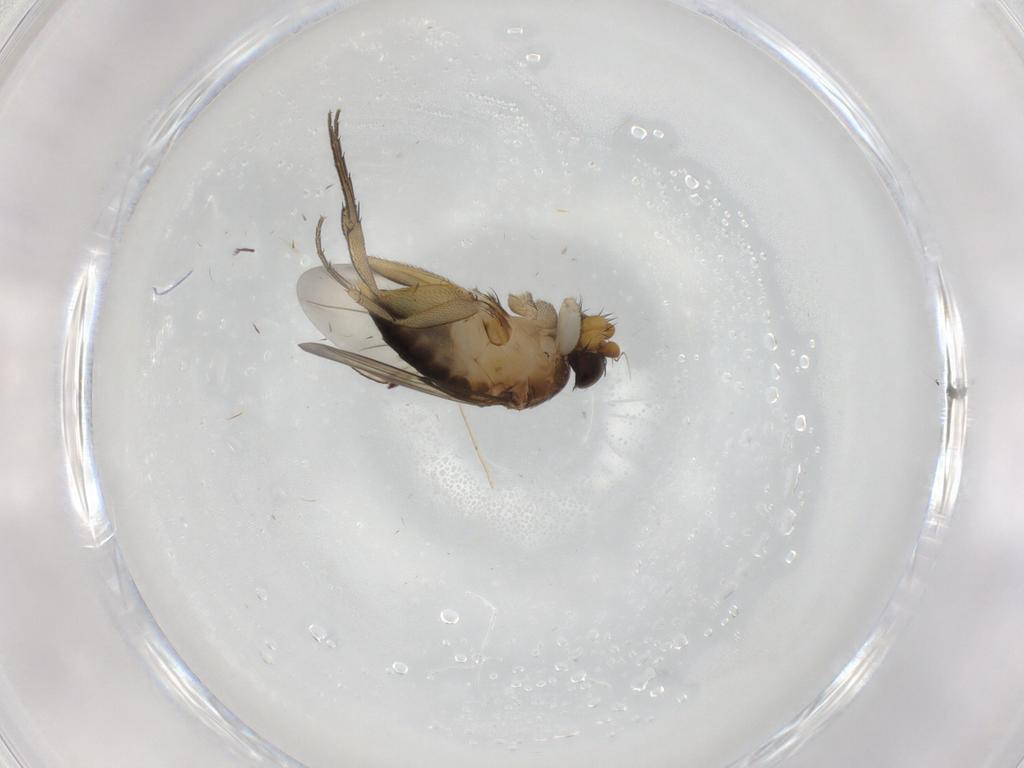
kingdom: Animalia
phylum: Arthropoda
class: Insecta
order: Diptera
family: Phoridae
